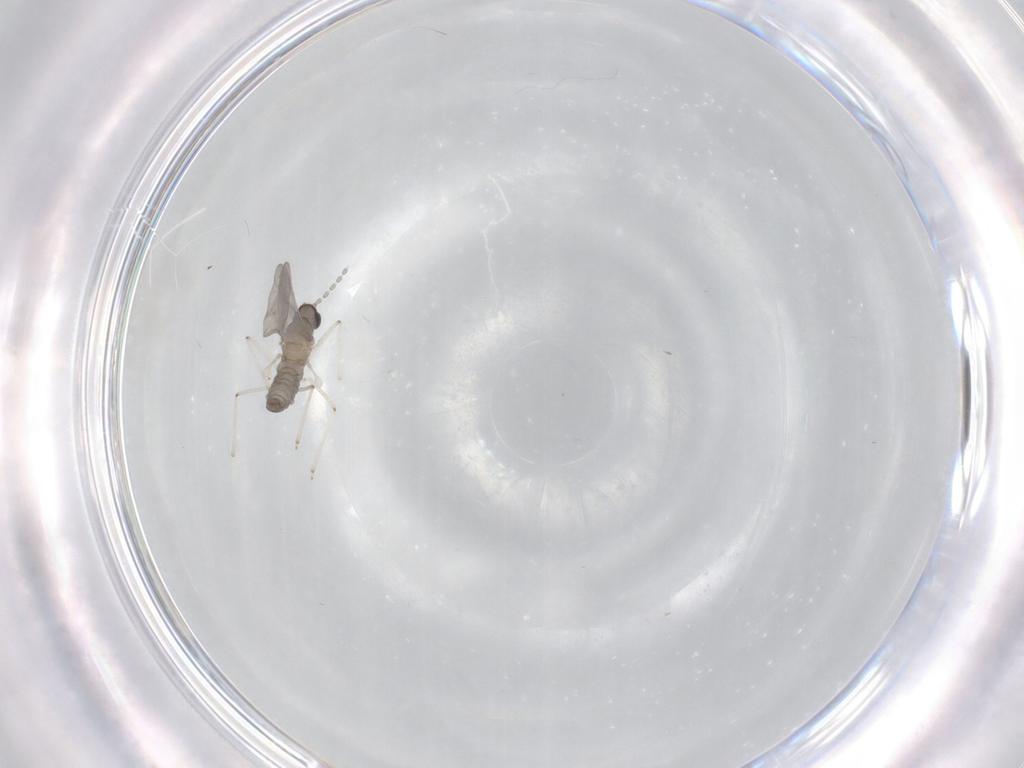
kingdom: Animalia
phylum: Arthropoda
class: Insecta
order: Diptera
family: Cecidomyiidae
